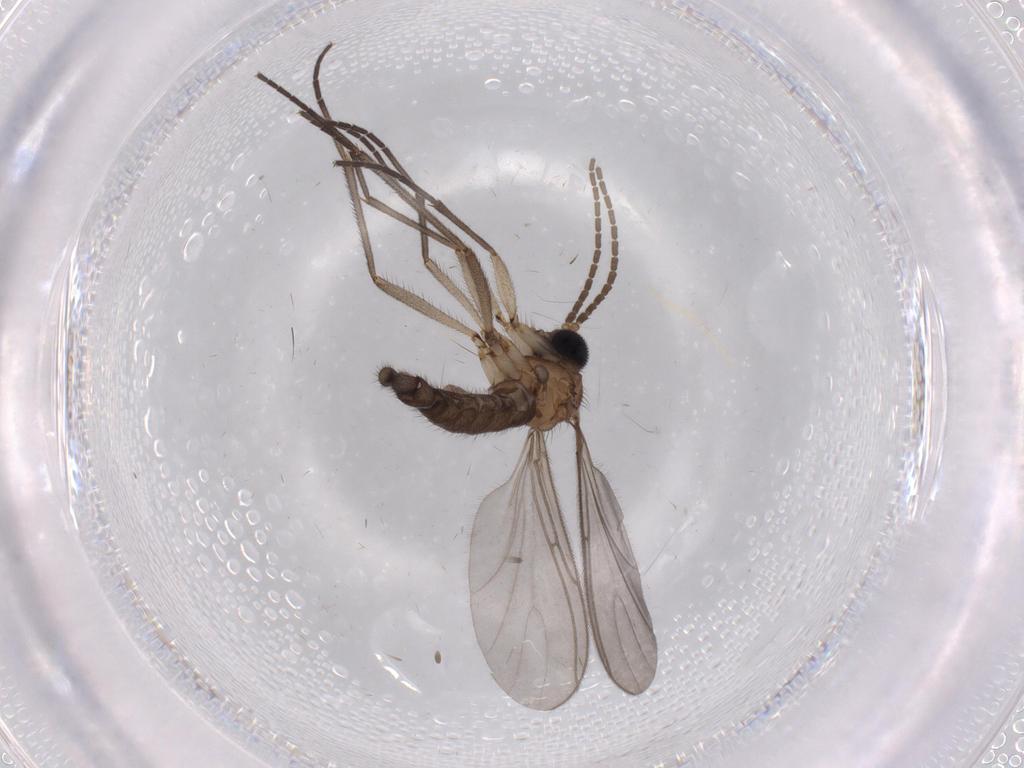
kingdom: Animalia
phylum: Arthropoda
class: Insecta
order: Diptera
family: Sciaridae
